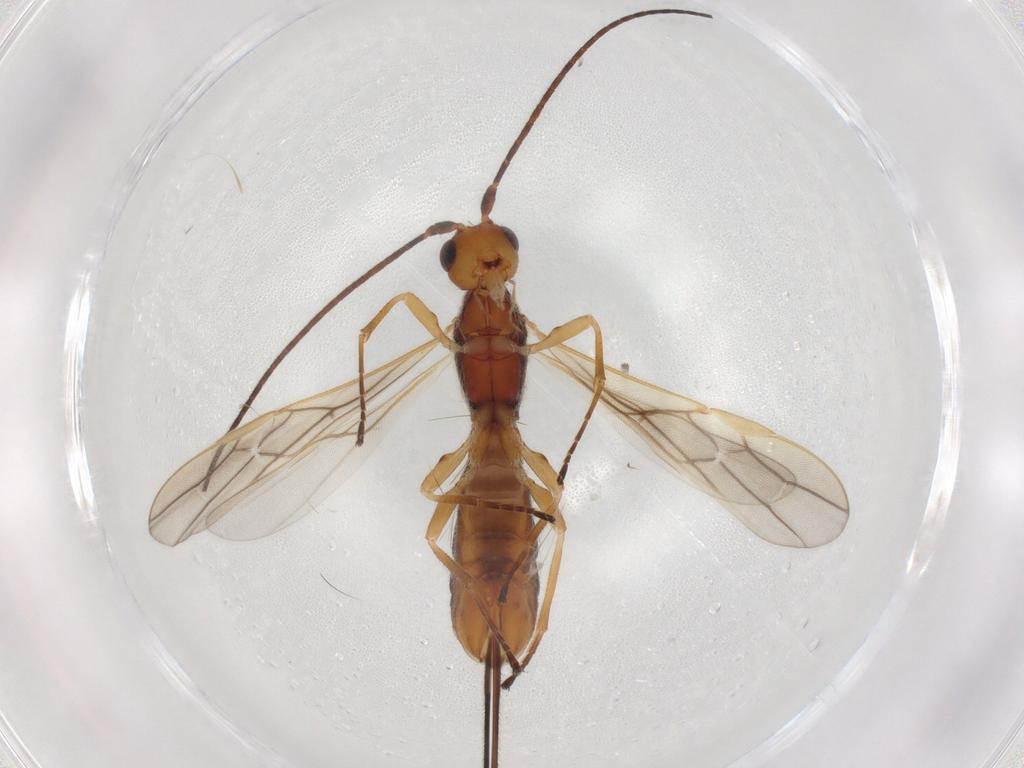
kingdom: Animalia
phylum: Arthropoda
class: Insecta
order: Hymenoptera
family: Braconidae
